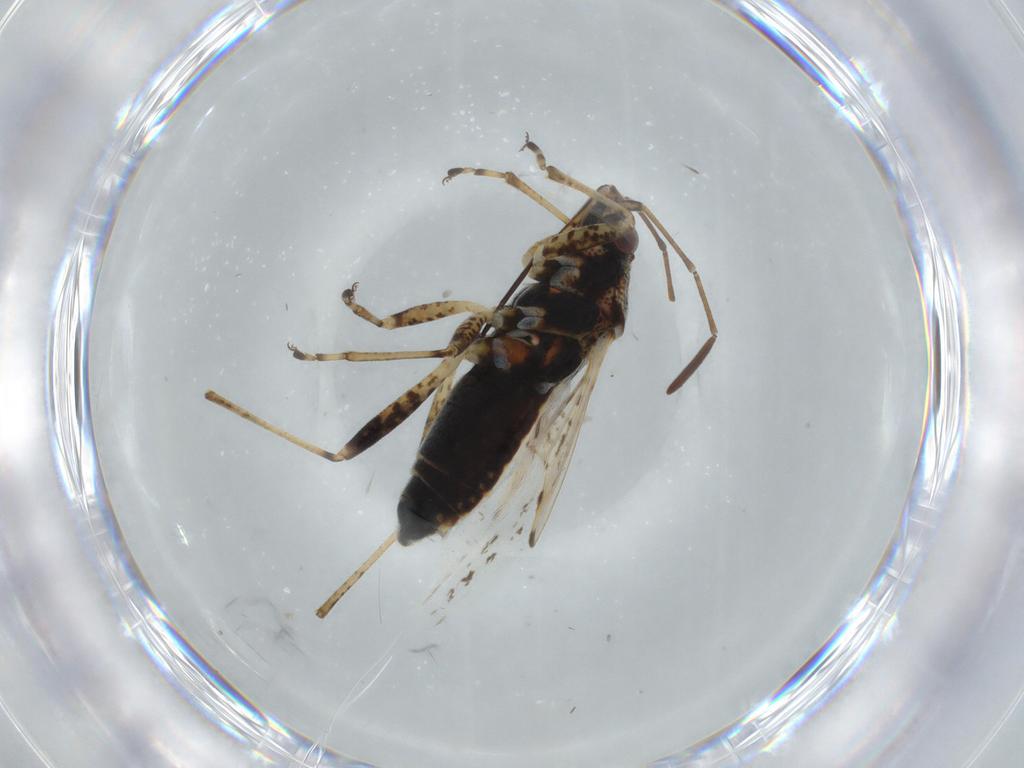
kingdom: Animalia
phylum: Arthropoda
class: Insecta
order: Hemiptera
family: Lygaeidae
